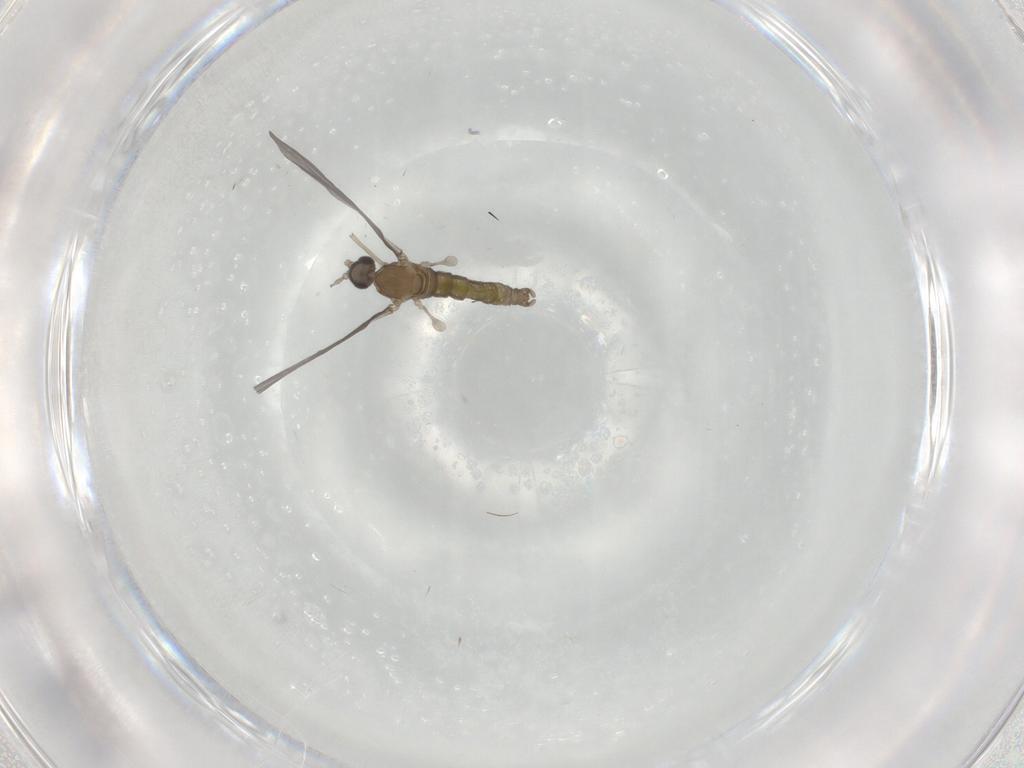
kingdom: Animalia
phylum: Arthropoda
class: Insecta
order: Diptera
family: Cecidomyiidae
